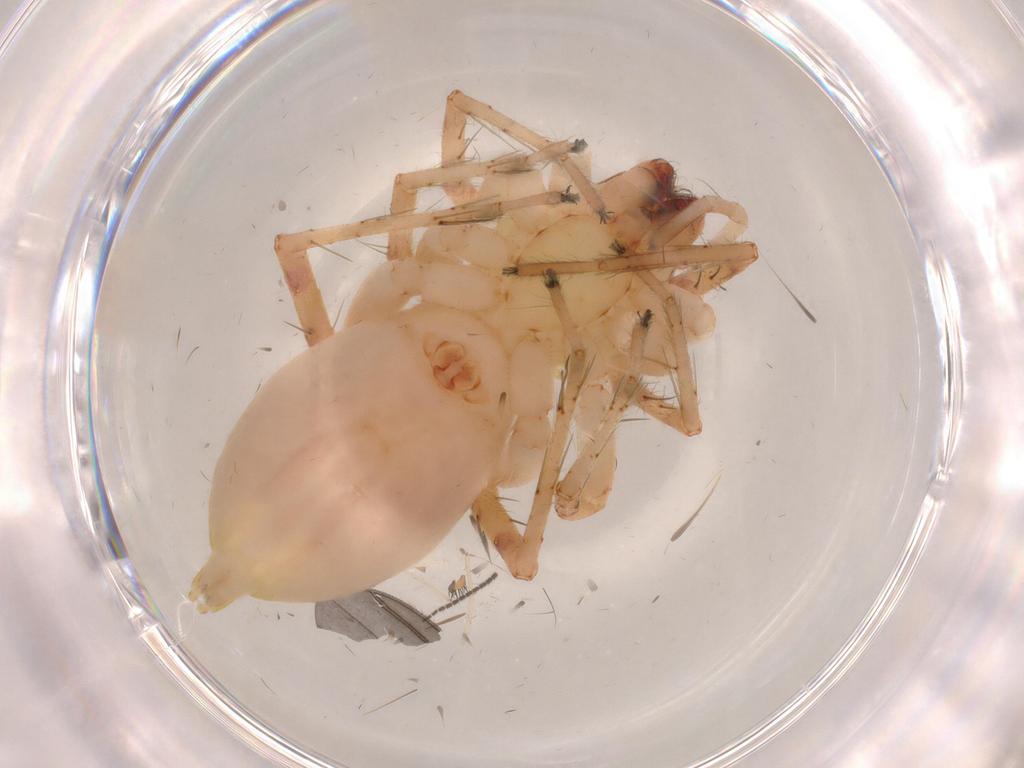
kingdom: Animalia
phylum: Arthropoda
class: Arachnida
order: Araneae
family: Anyphaenidae
